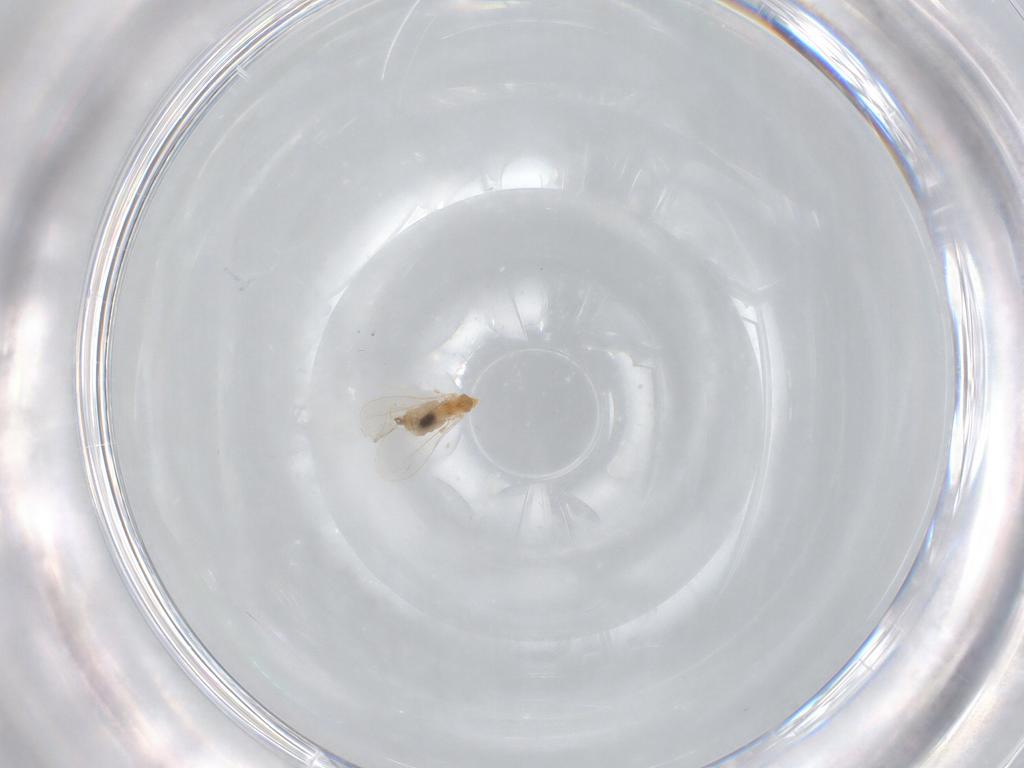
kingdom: Animalia
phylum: Arthropoda
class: Insecta
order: Diptera
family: Cecidomyiidae
